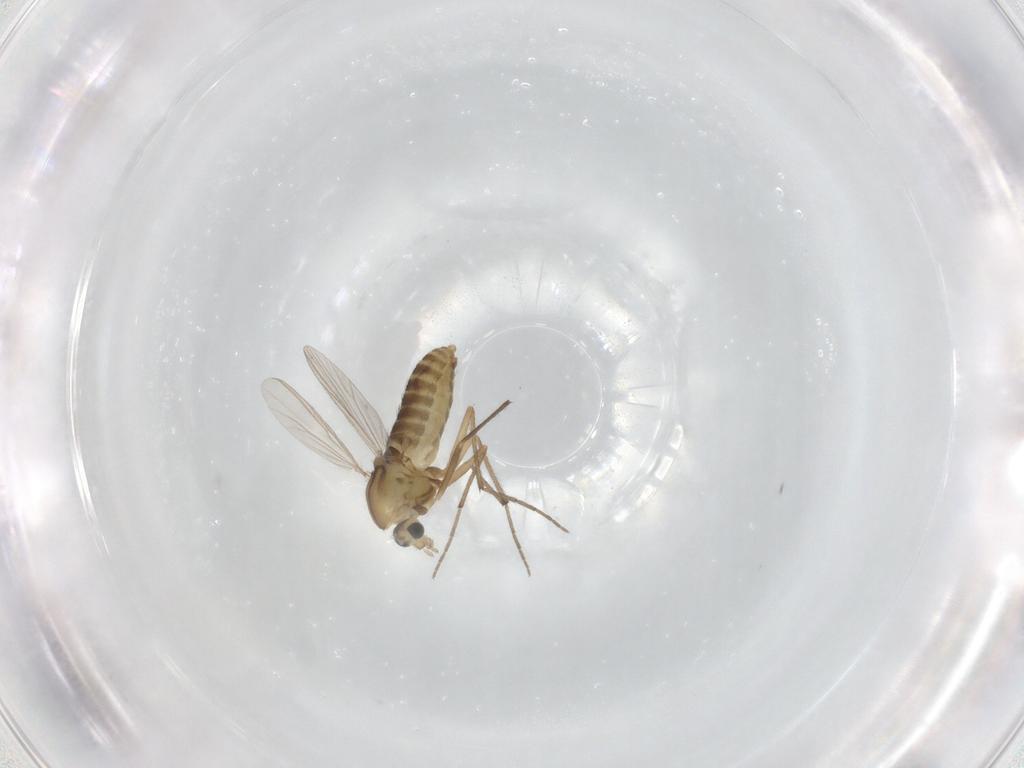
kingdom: Animalia
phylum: Arthropoda
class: Insecta
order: Diptera
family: Chironomidae
